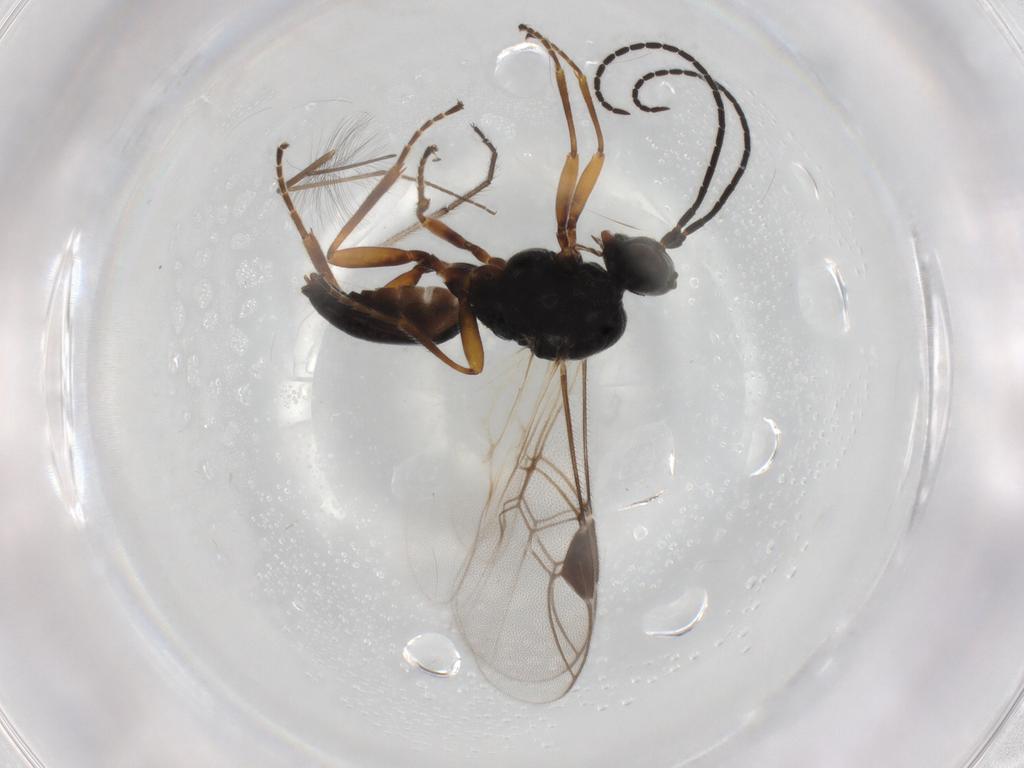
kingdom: Animalia
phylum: Arthropoda
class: Insecta
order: Hymenoptera
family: Braconidae
